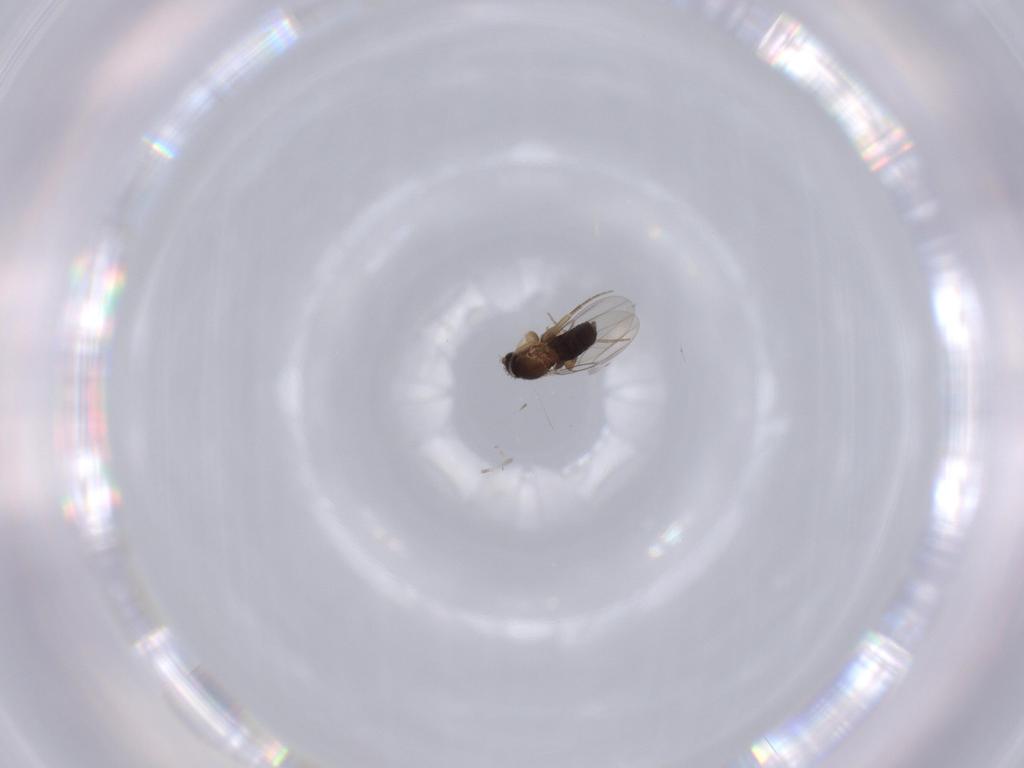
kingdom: Animalia
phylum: Arthropoda
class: Insecta
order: Diptera
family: Phoridae
